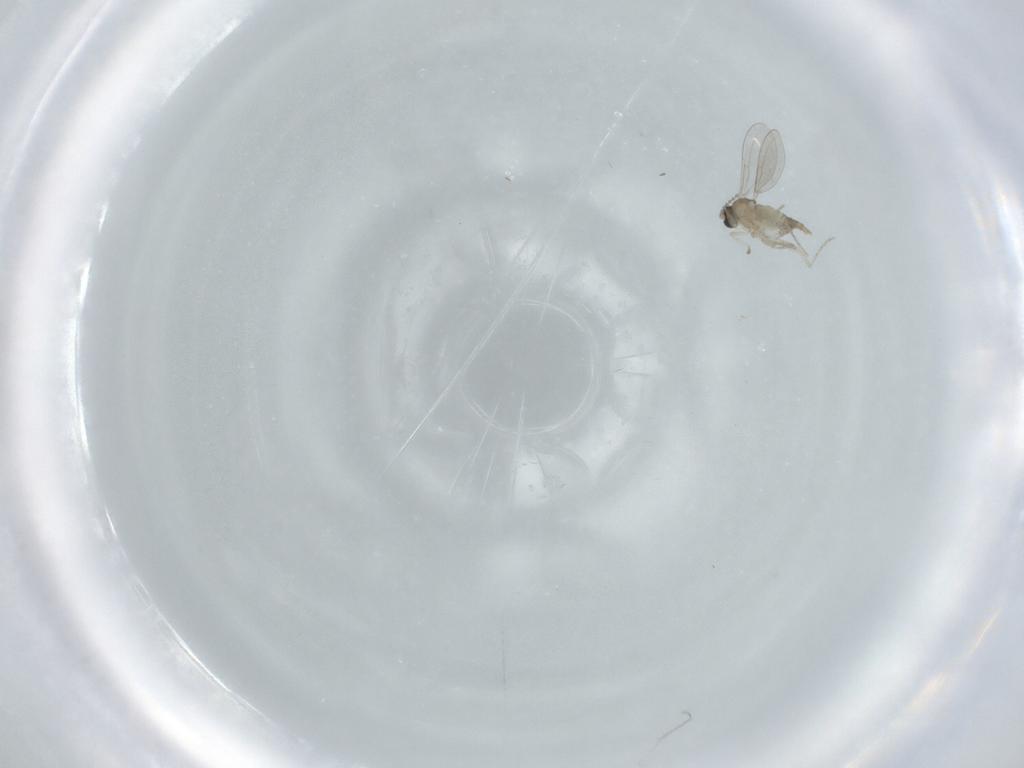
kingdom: Animalia
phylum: Arthropoda
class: Insecta
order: Diptera
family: Cecidomyiidae
